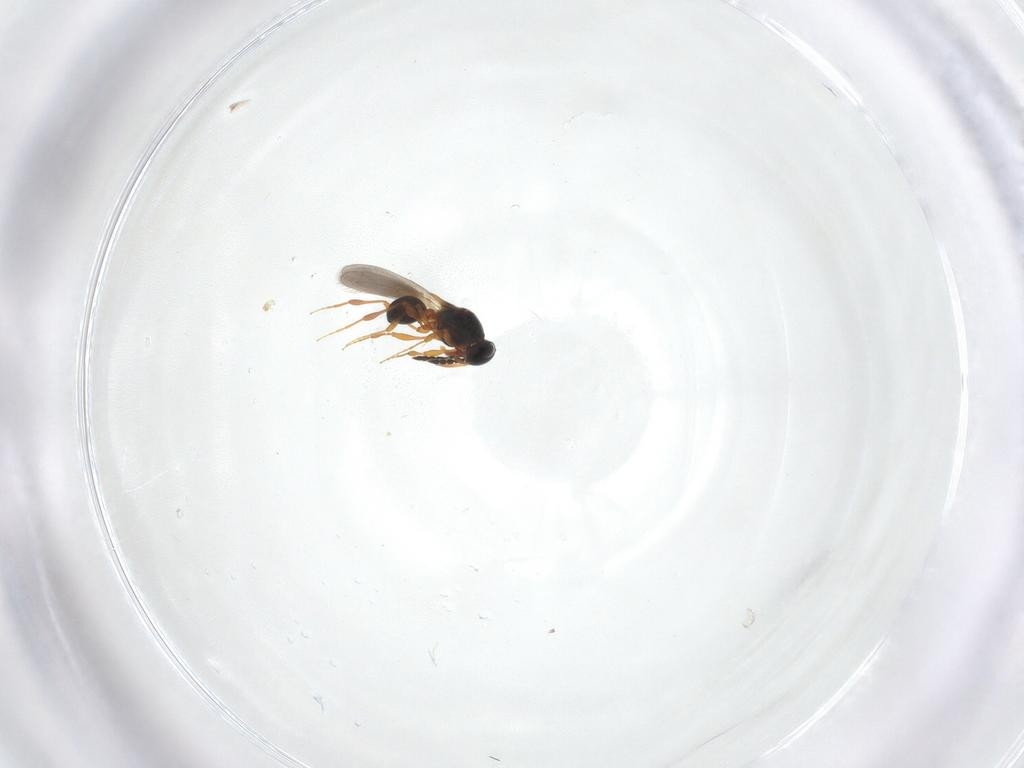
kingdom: Animalia
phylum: Arthropoda
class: Insecta
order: Hymenoptera
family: Platygastridae
